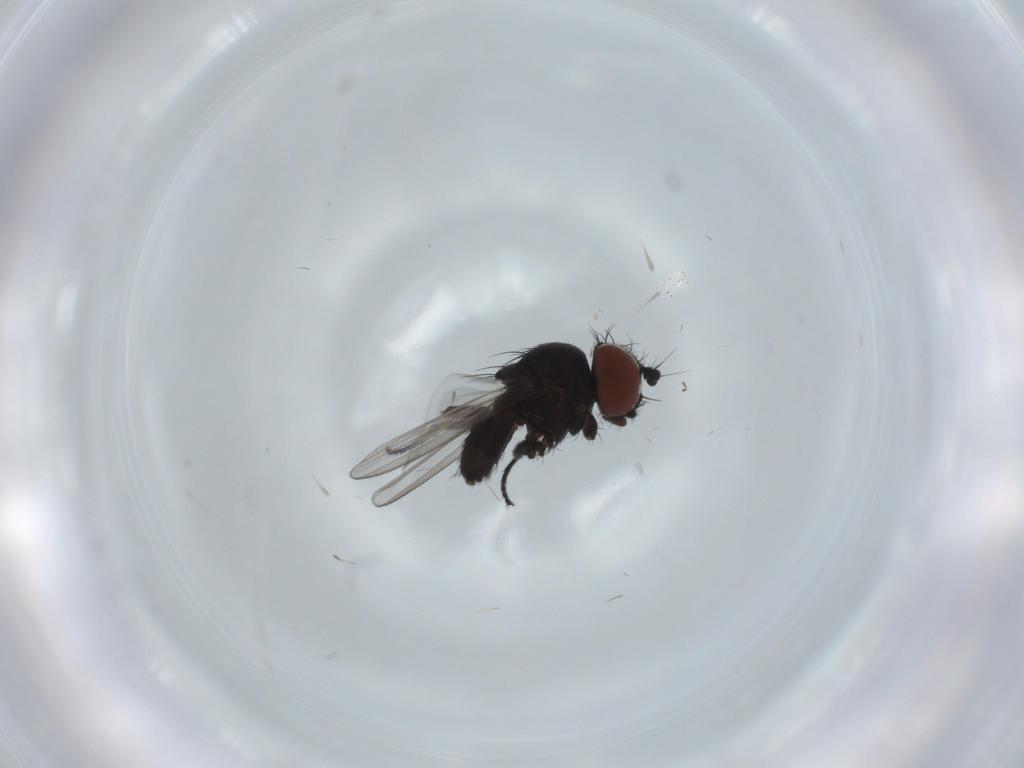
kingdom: Animalia
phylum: Arthropoda
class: Insecta
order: Diptera
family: Milichiidae
